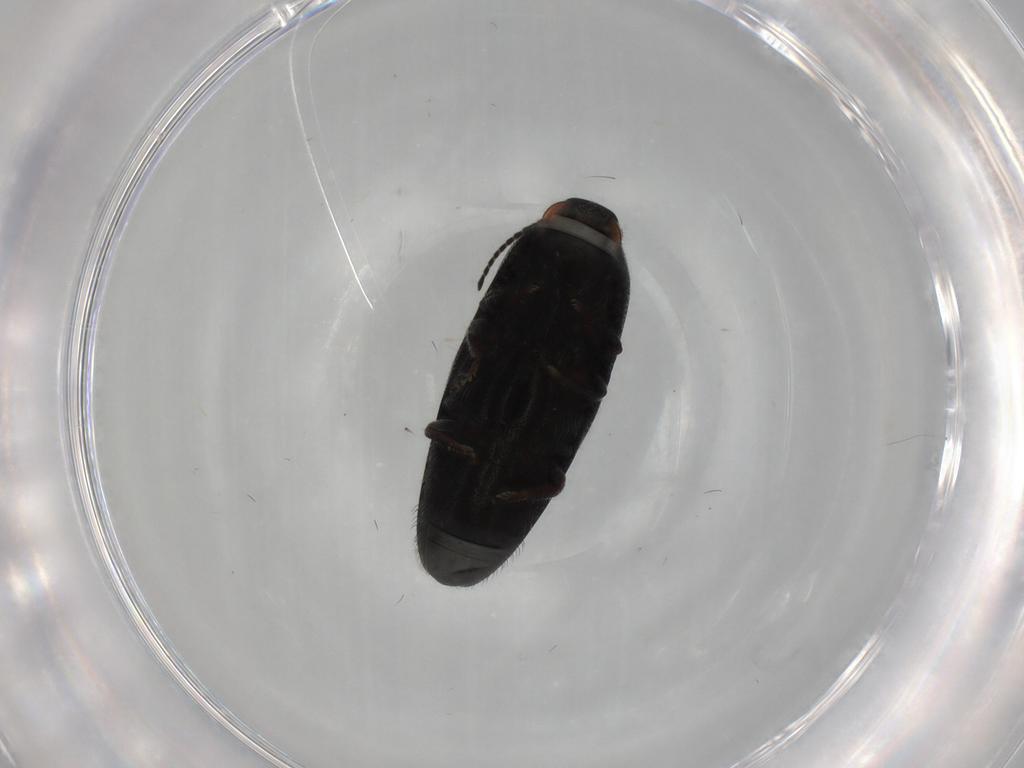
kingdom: Animalia
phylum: Arthropoda
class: Insecta
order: Coleoptera
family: Elateridae
